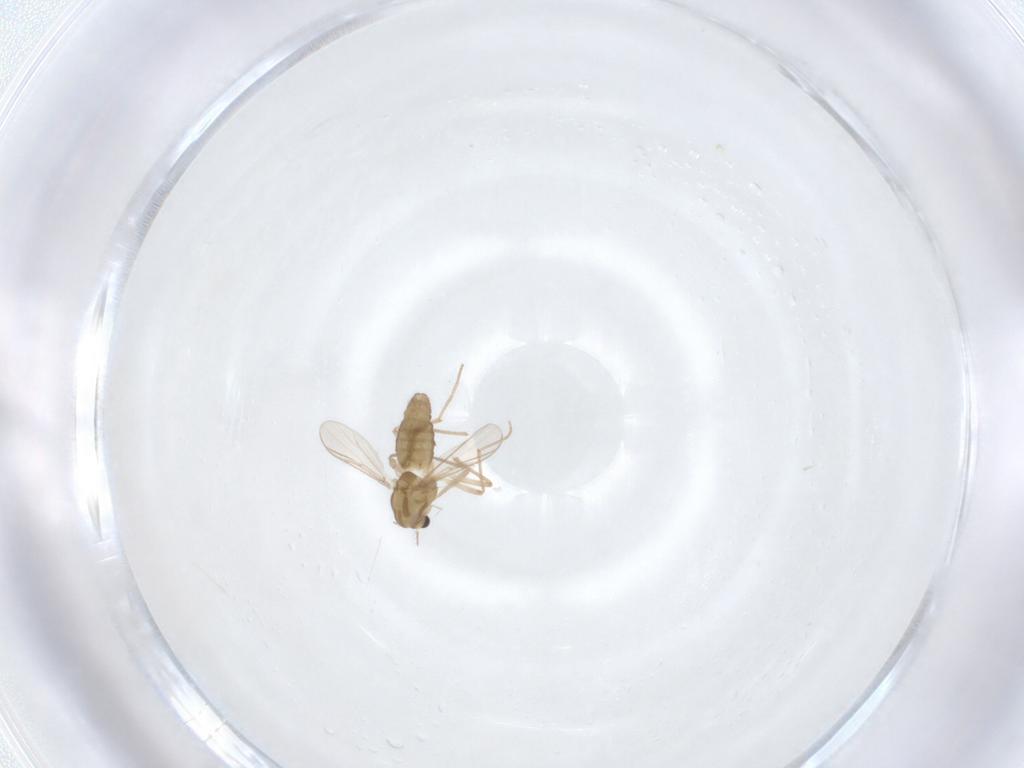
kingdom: Animalia
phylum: Arthropoda
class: Insecta
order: Diptera
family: Chironomidae
